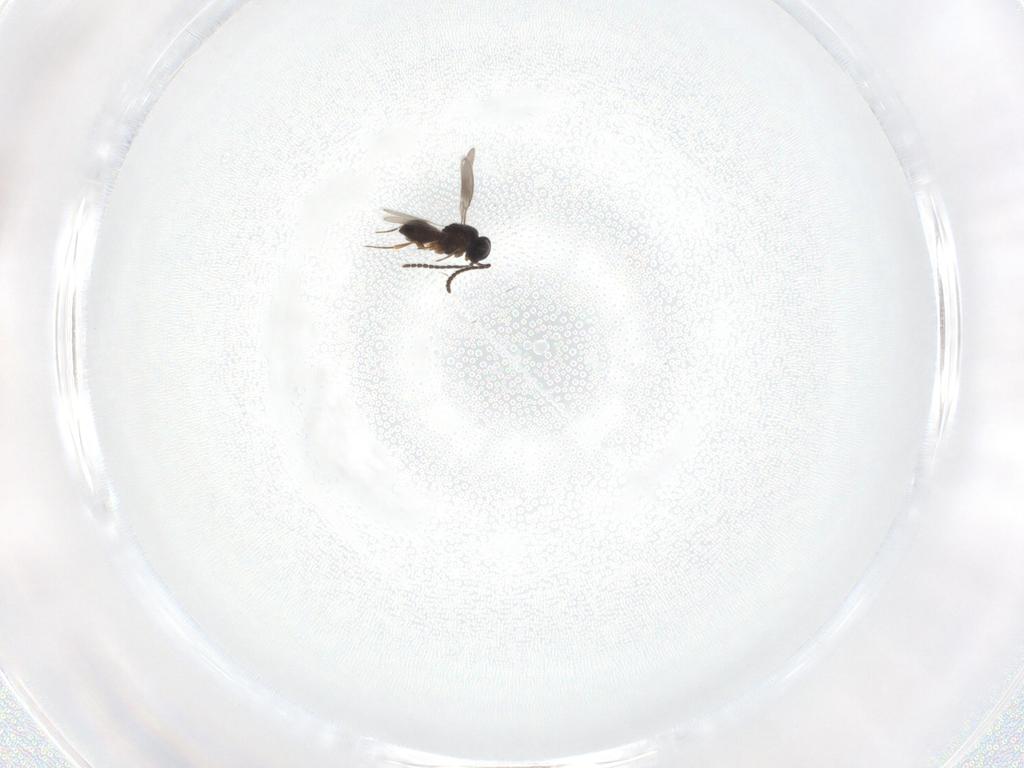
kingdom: Animalia
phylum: Arthropoda
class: Insecta
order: Hymenoptera
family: Scelionidae
